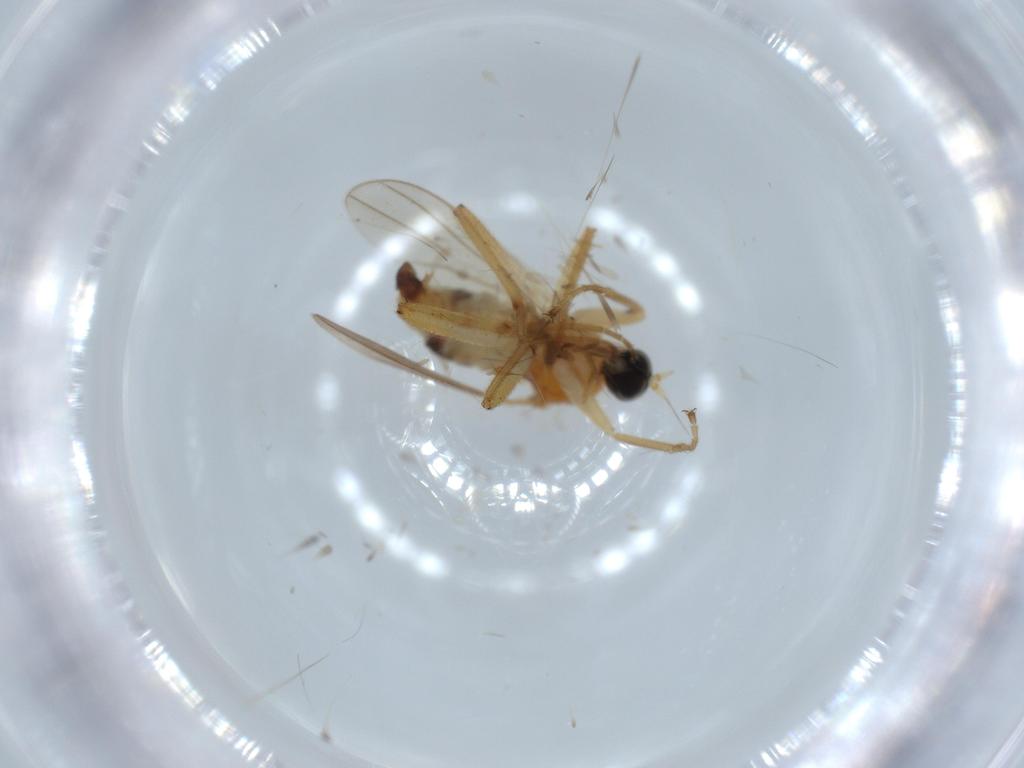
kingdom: Animalia
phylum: Arthropoda
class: Insecta
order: Diptera
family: Hybotidae
